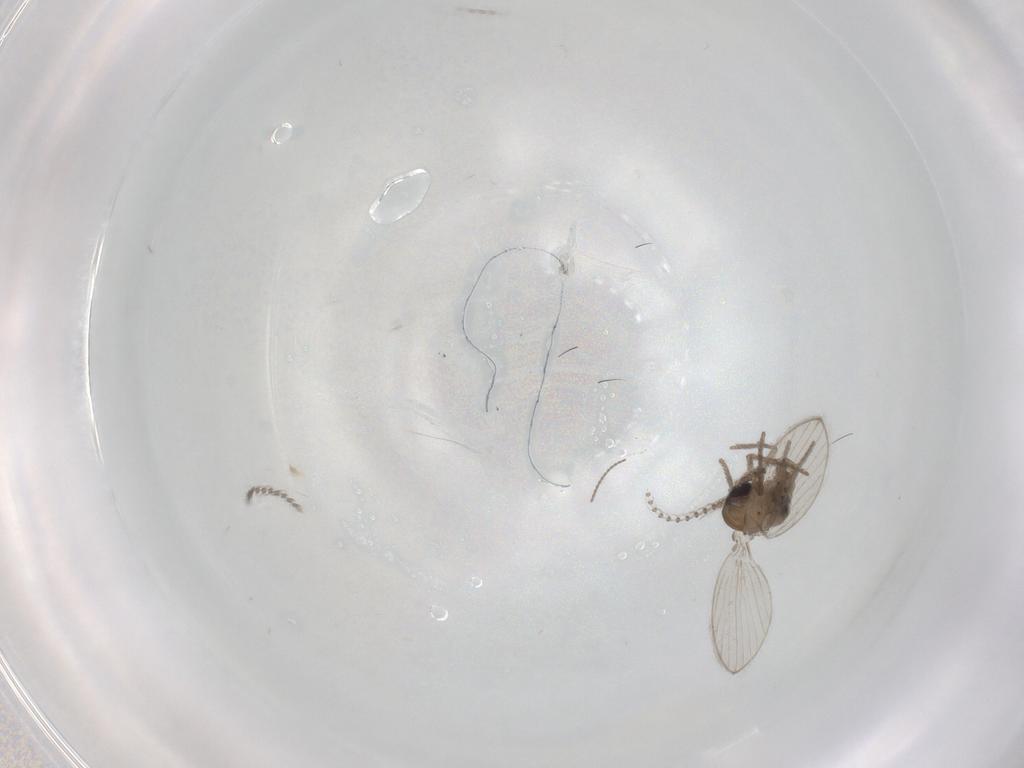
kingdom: Animalia
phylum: Arthropoda
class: Insecta
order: Diptera
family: Psychodidae
